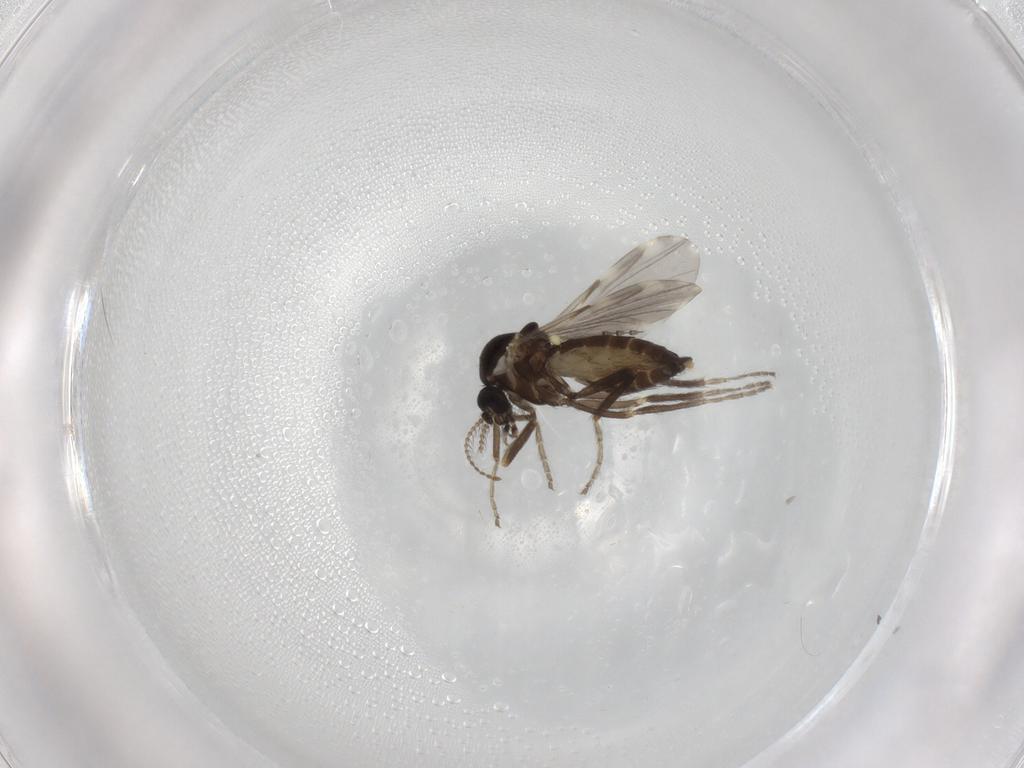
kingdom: Animalia
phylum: Arthropoda
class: Insecta
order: Diptera
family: Ceratopogonidae
